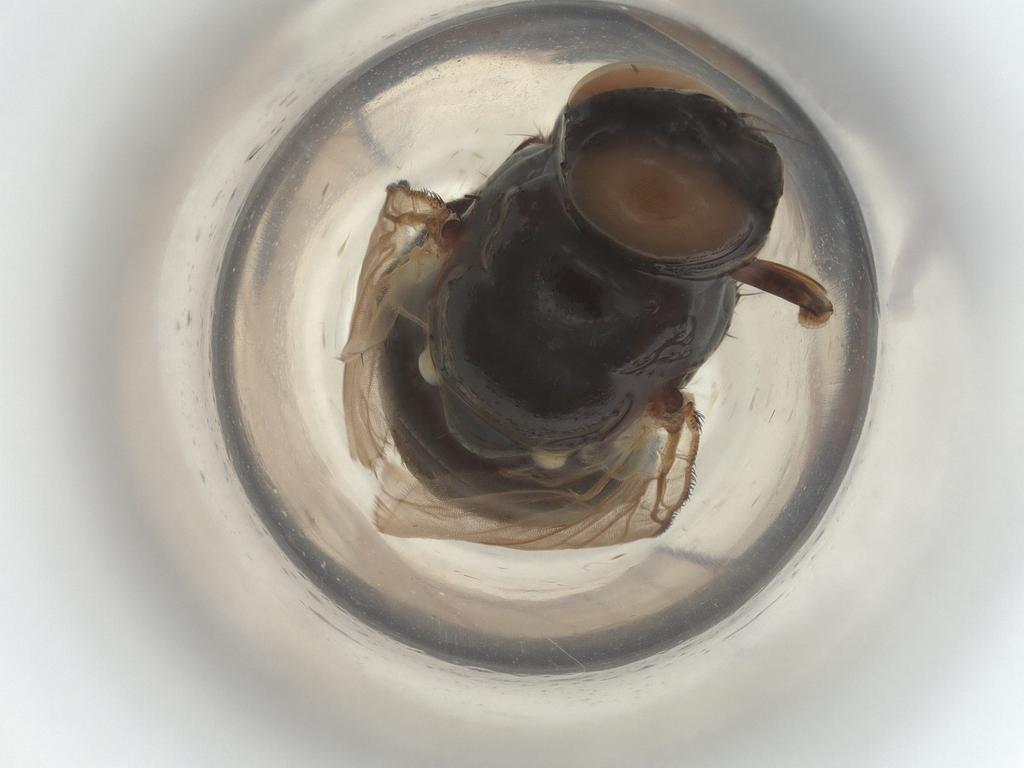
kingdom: Animalia
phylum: Arthropoda
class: Insecta
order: Diptera
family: Muscidae
